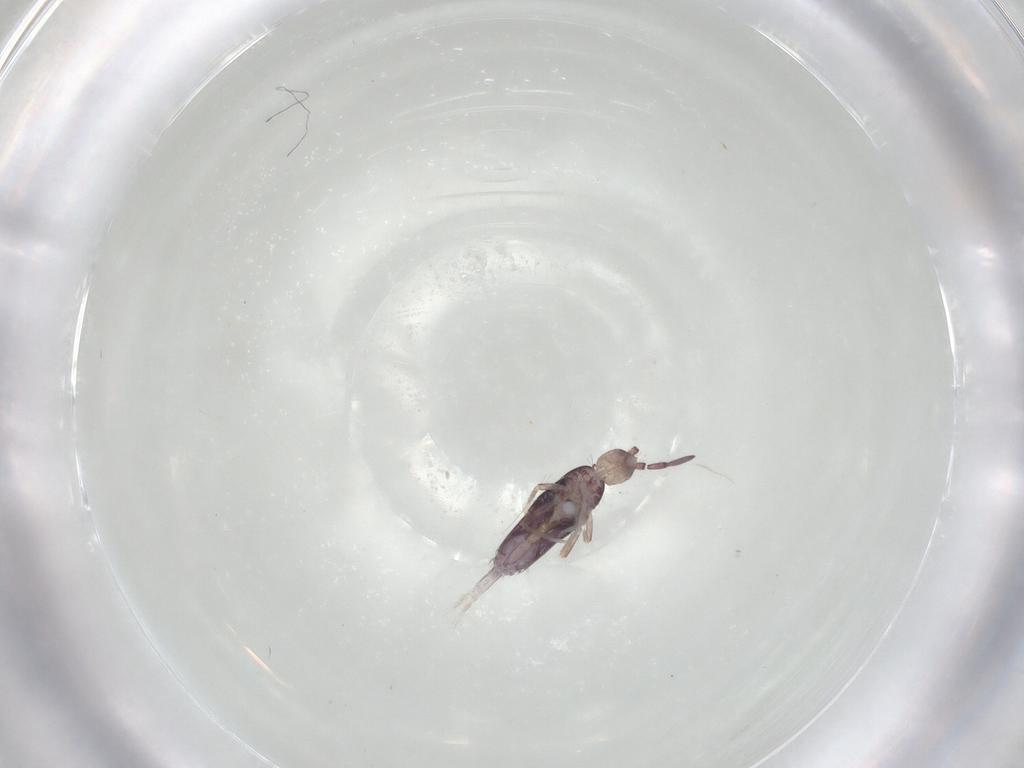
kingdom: Animalia
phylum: Arthropoda
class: Collembola
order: Entomobryomorpha
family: Entomobryidae
